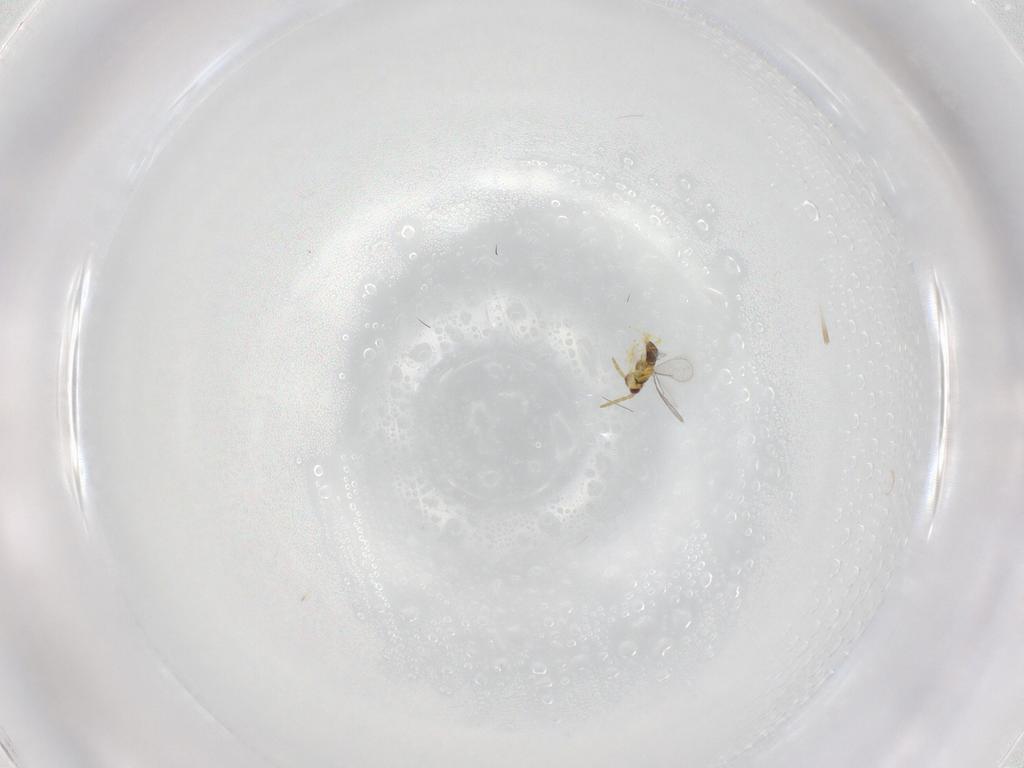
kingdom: Animalia
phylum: Arthropoda
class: Insecta
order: Hymenoptera
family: Aphelinidae
